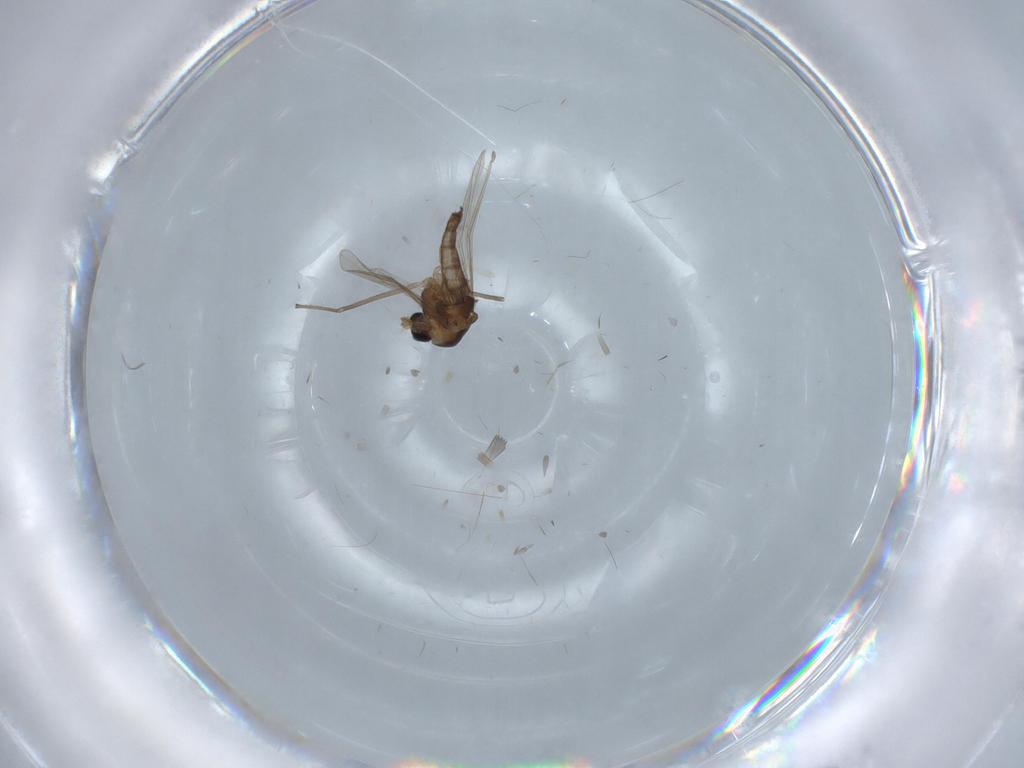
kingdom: Animalia
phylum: Arthropoda
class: Insecta
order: Diptera
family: Chironomidae
